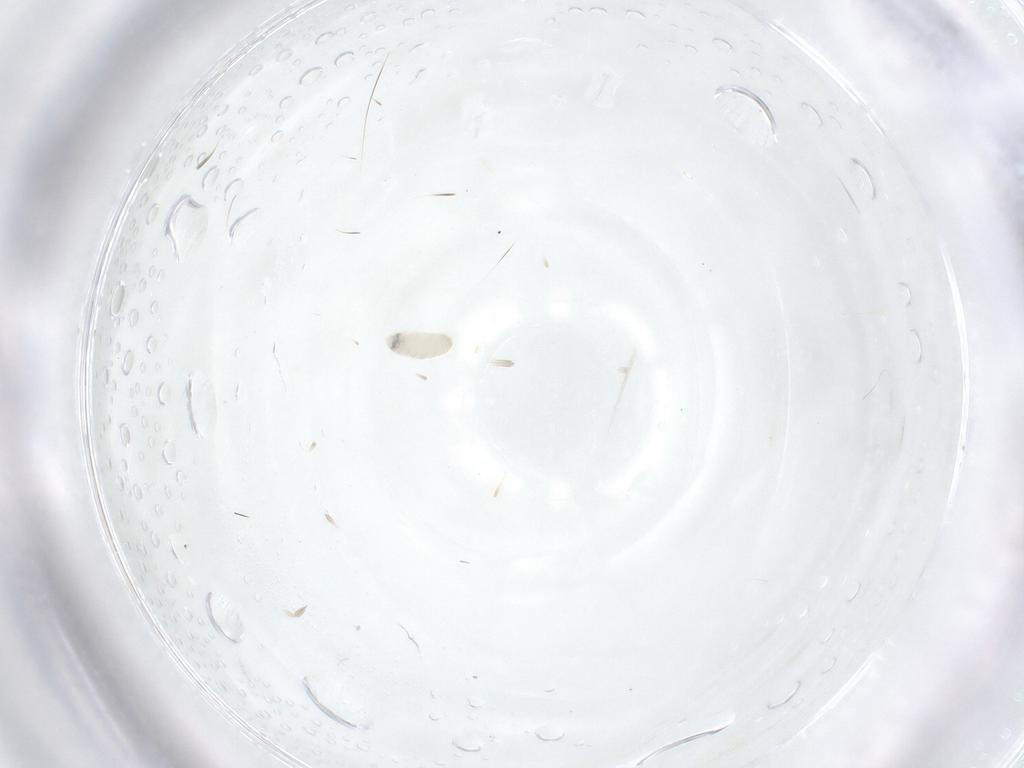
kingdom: Animalia
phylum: Arthropoda
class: Insecta
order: Diptera
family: Tachinidae
